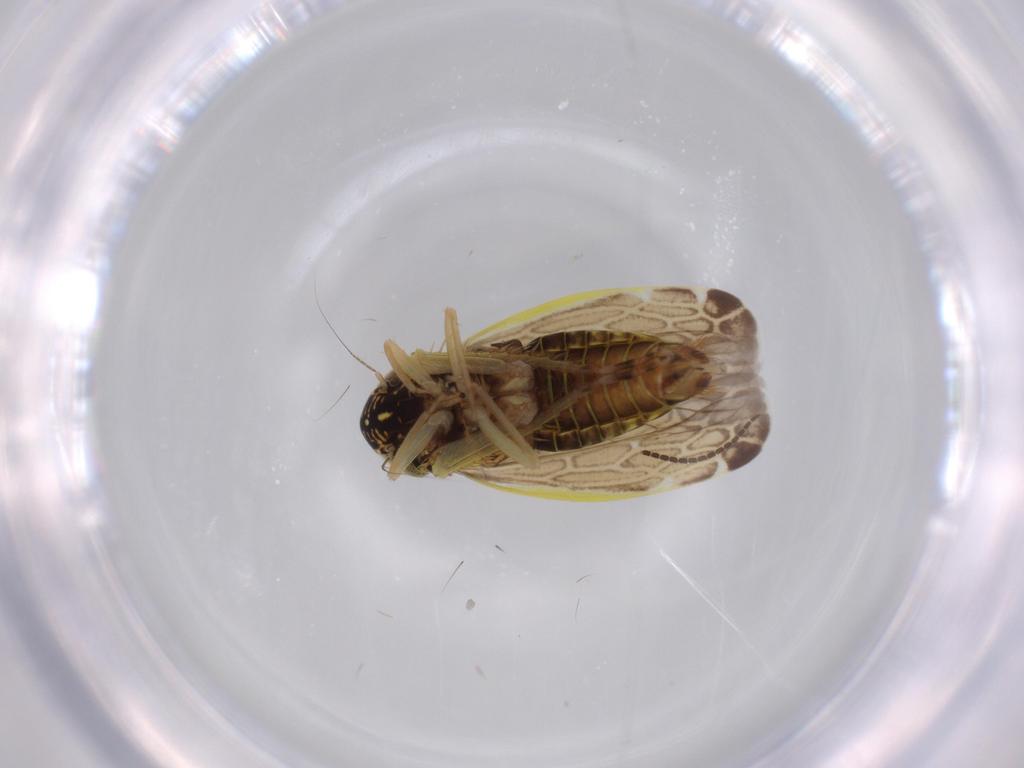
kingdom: Animalia
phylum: Arthropoda
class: Insecta
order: Hemiptera
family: Cicadellidae
